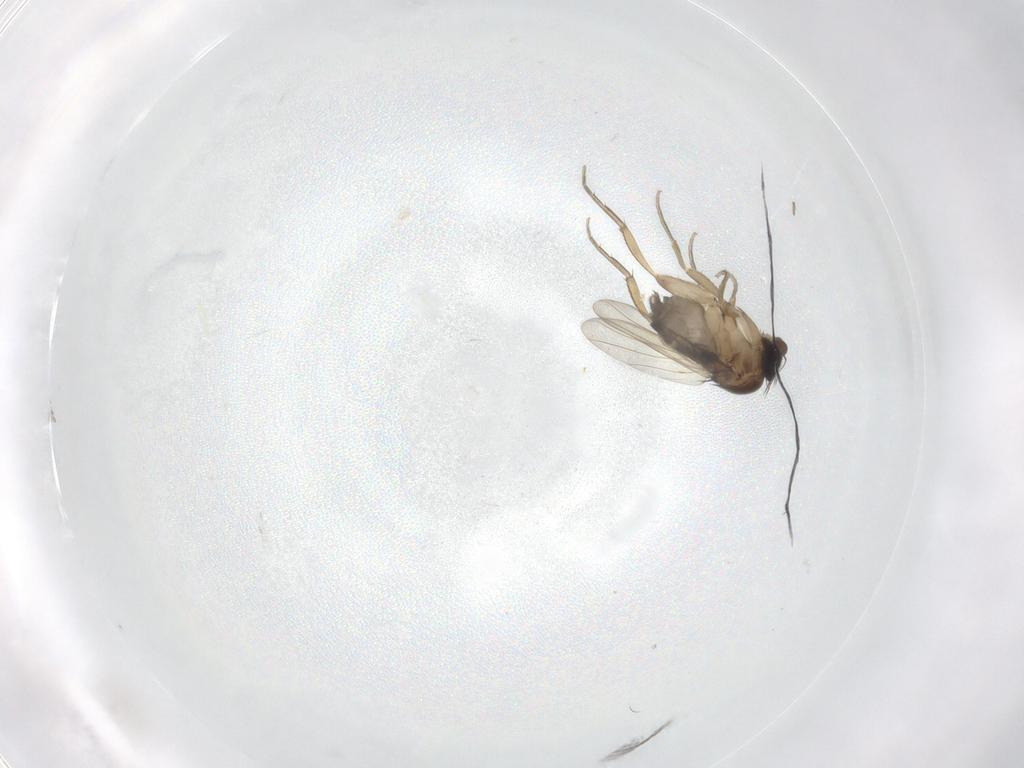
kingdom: Animalia
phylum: Arthropoda
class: Insecta
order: Diptera
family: Phoridae
